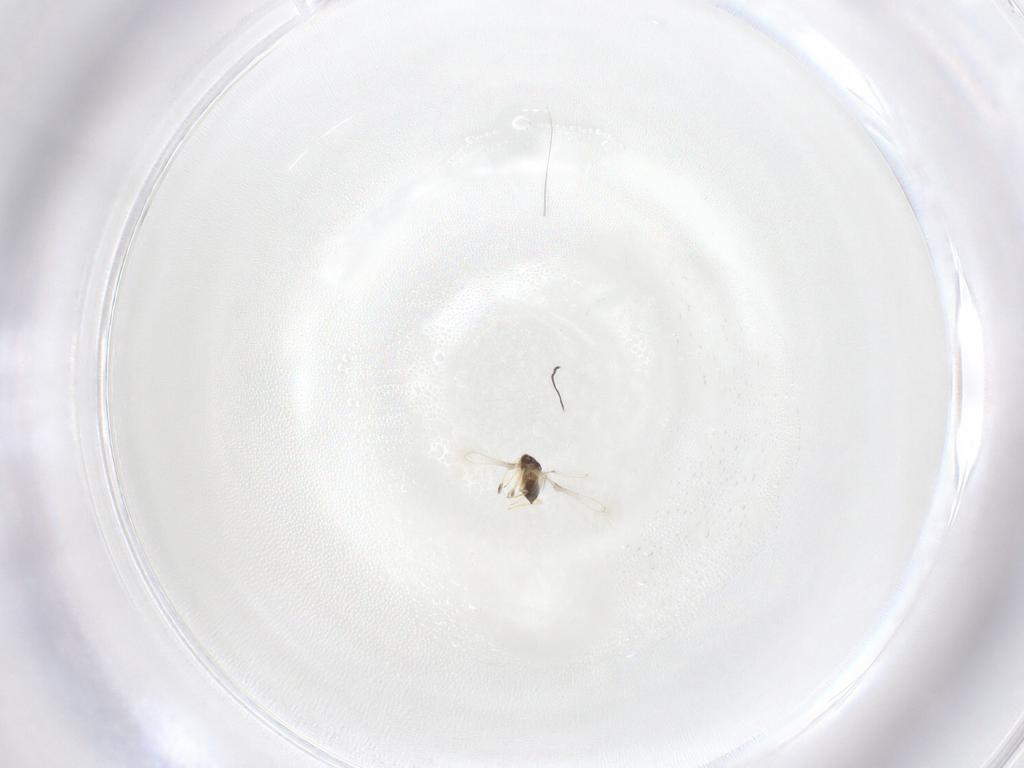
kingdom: Animalia
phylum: Arthropoda
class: Insecta
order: Hymenoptera
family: Mymaridae
